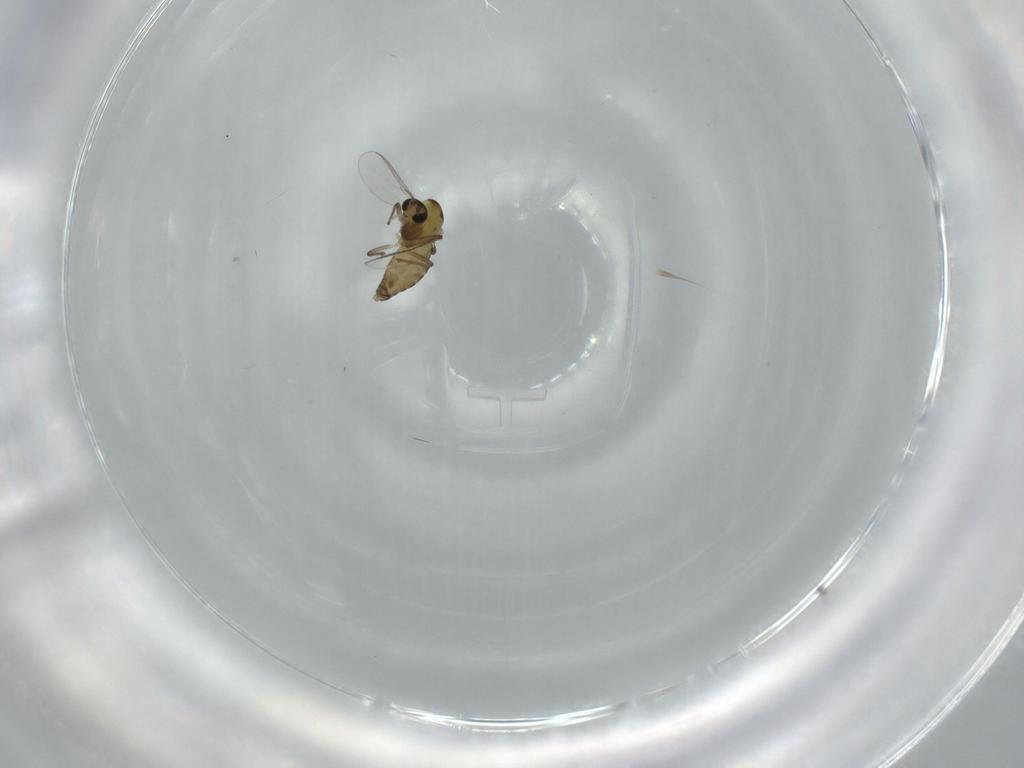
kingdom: Animalia
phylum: Arthropoda
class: Insecta
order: Diptera
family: Chironomidae
